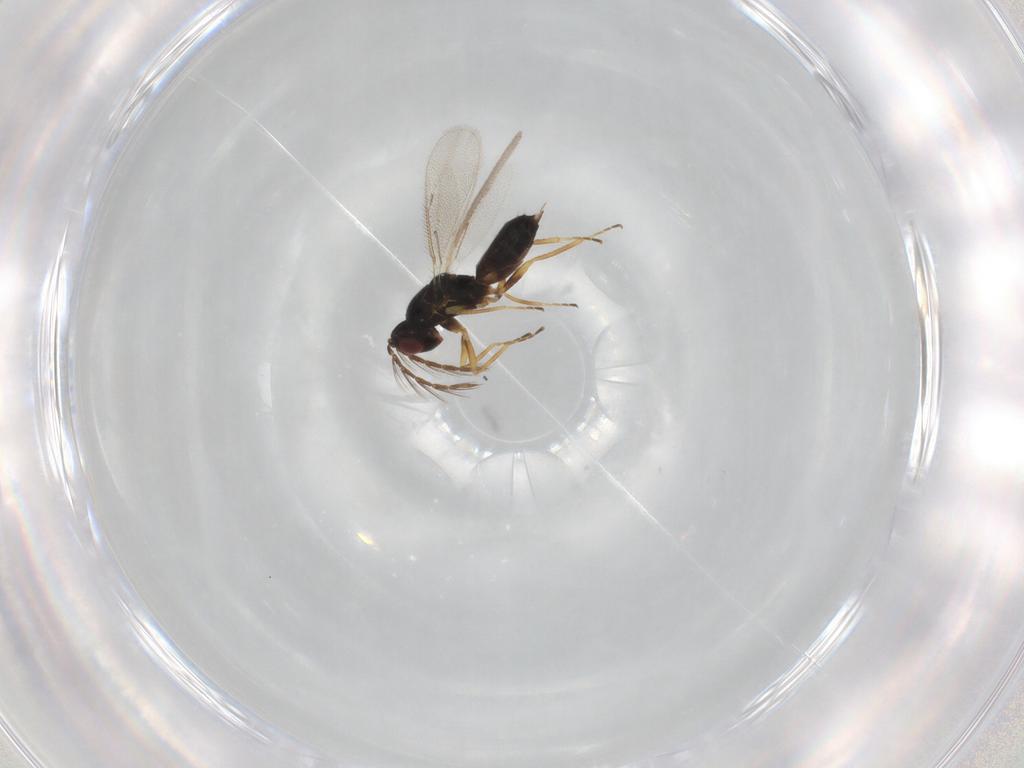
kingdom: Animalia
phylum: Arthropoda
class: Insecta
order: Hymenoptera
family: Eulophidae
